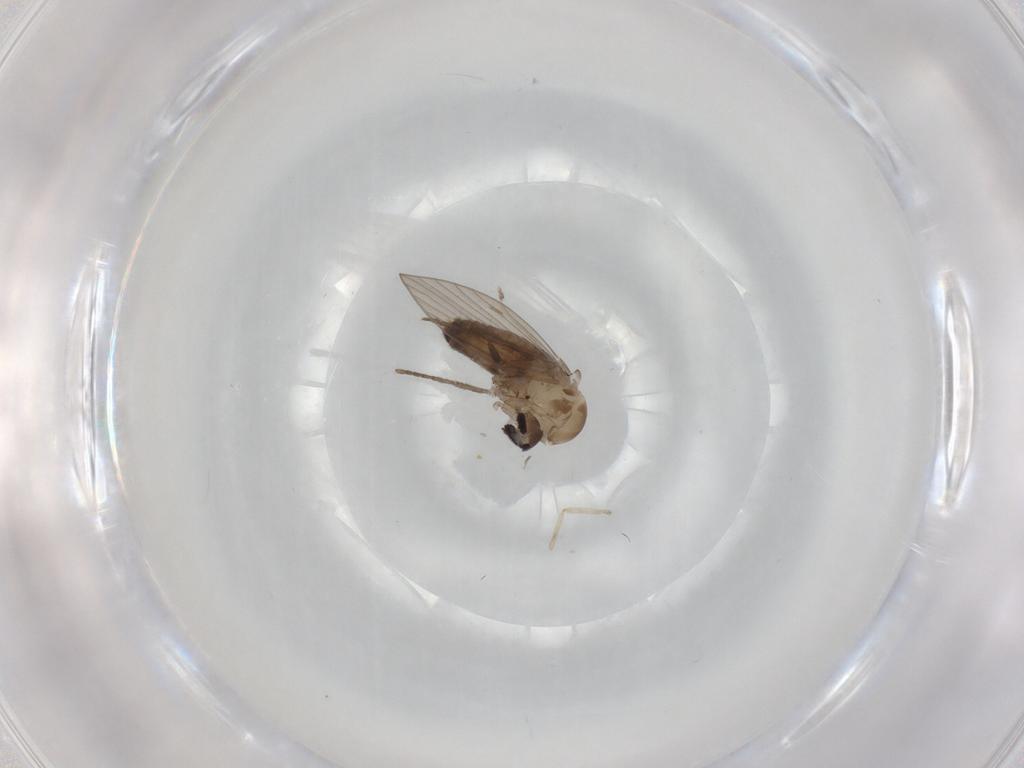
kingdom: Animalia
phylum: Arthropoda
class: Insecta
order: Diptera
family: Psychodidae
